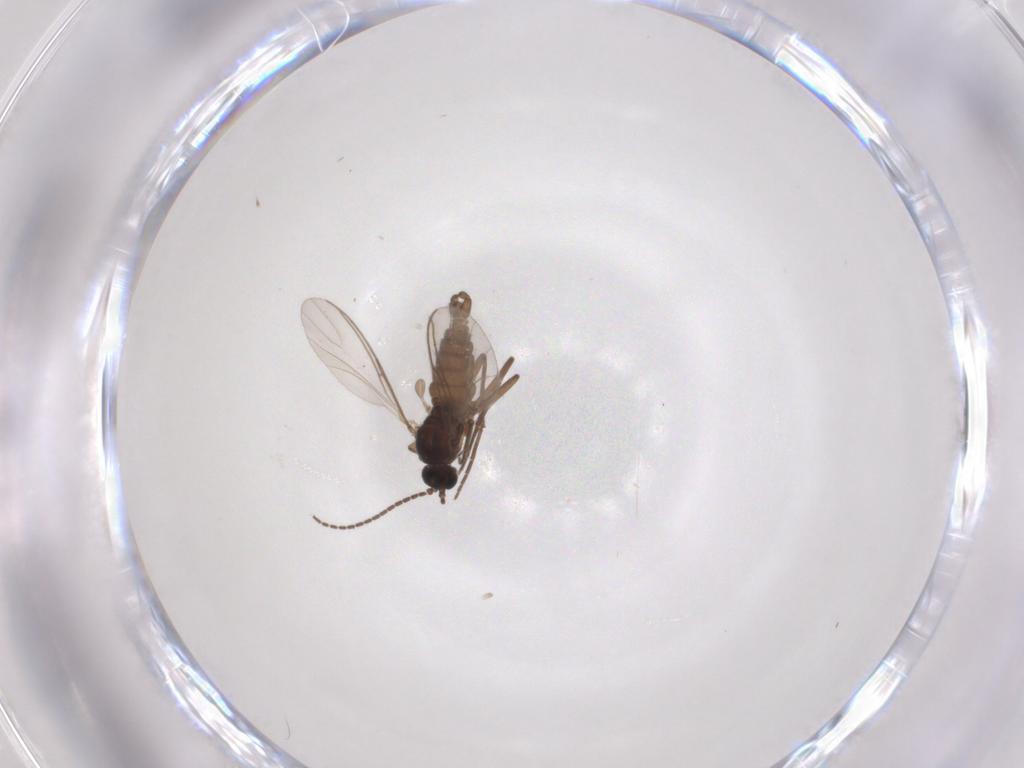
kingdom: Animalia
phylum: Arthropoda
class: Insecta
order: Diptera
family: Sciaridae
